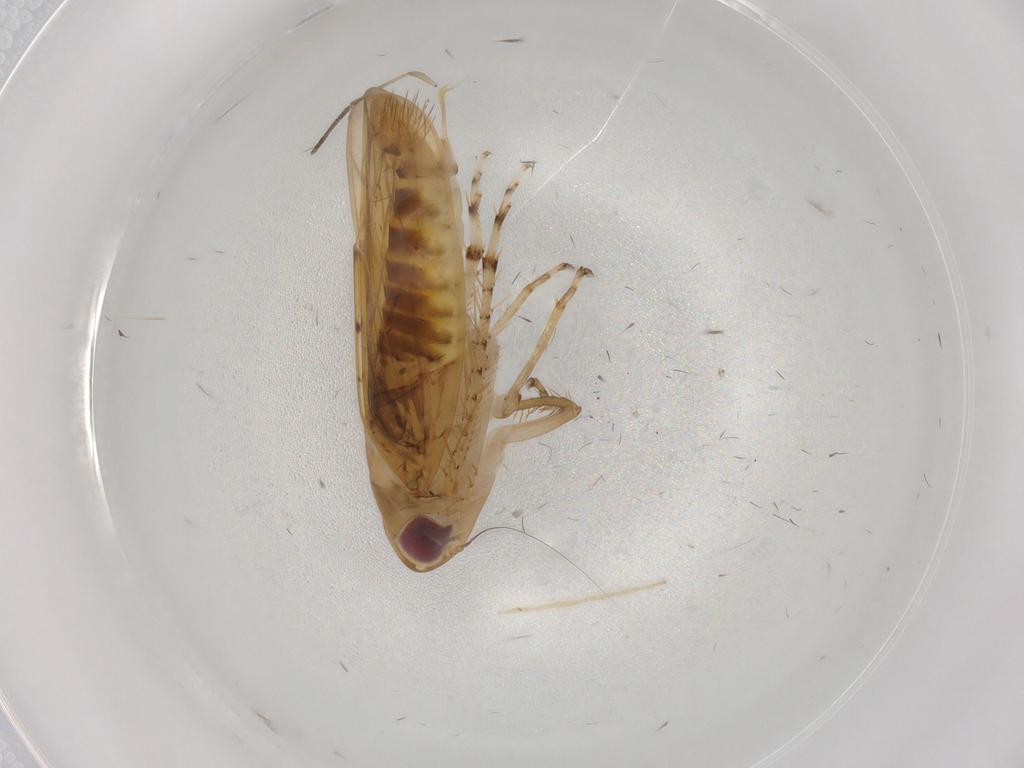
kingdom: Animalia
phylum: Arthropoda
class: Insecta
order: Hemiptera
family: Cicadellidae
